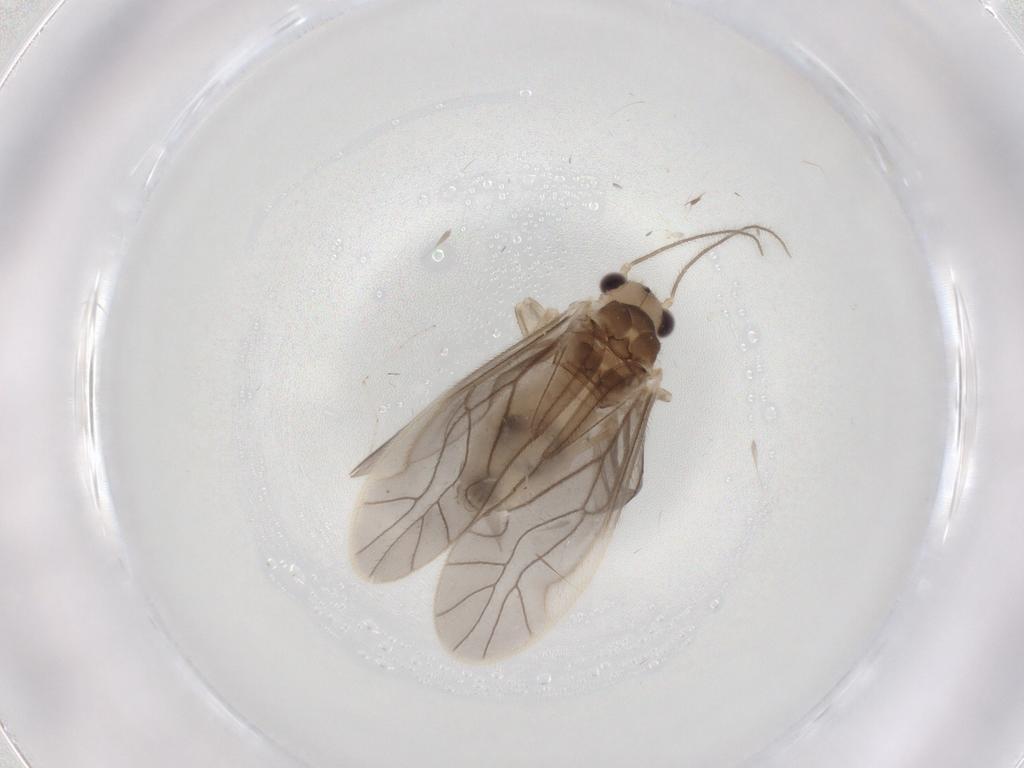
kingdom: Animalia
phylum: Arthropoda
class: Insecta
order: Psocodea
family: Caeciliusidae
